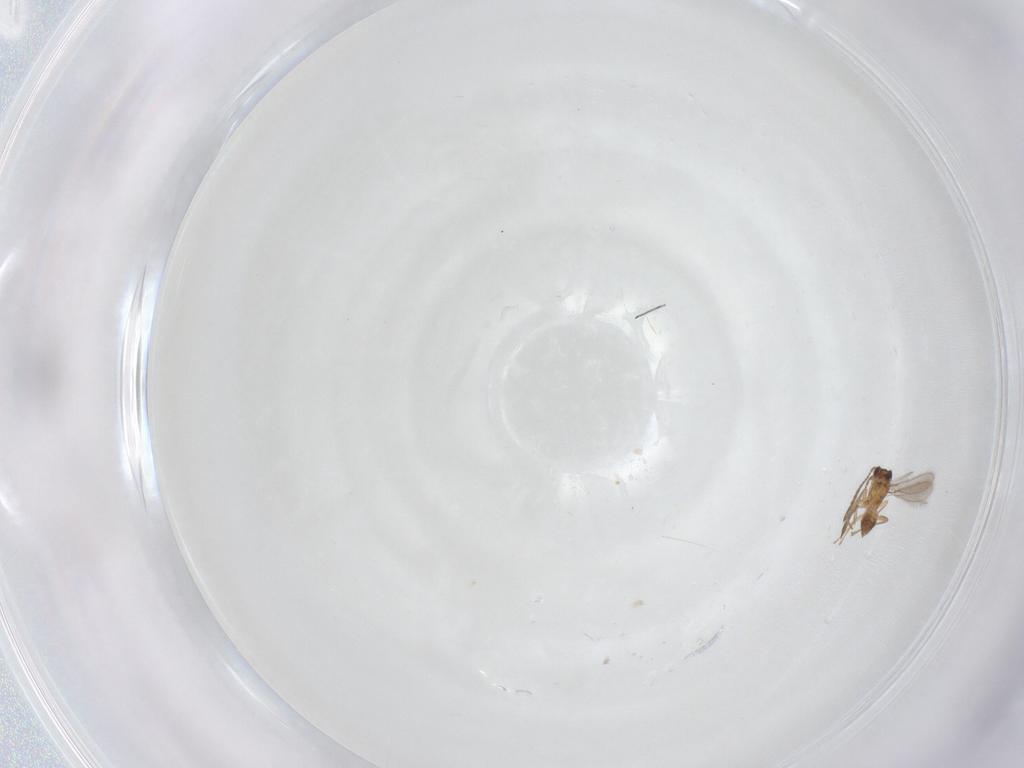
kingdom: Animalia
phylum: Arthropoda
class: Insecta
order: Hymenoptera
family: Mymaridae
